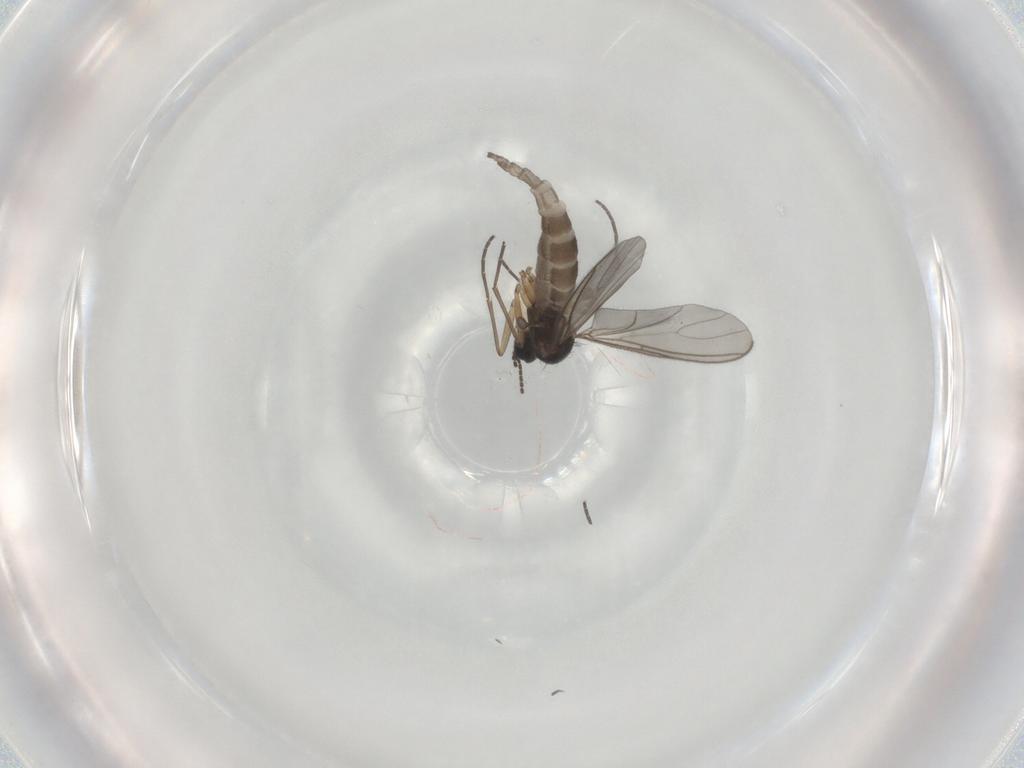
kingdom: Animalia
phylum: Arthropoda
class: Insecta
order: Diptera
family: Sciaridae
